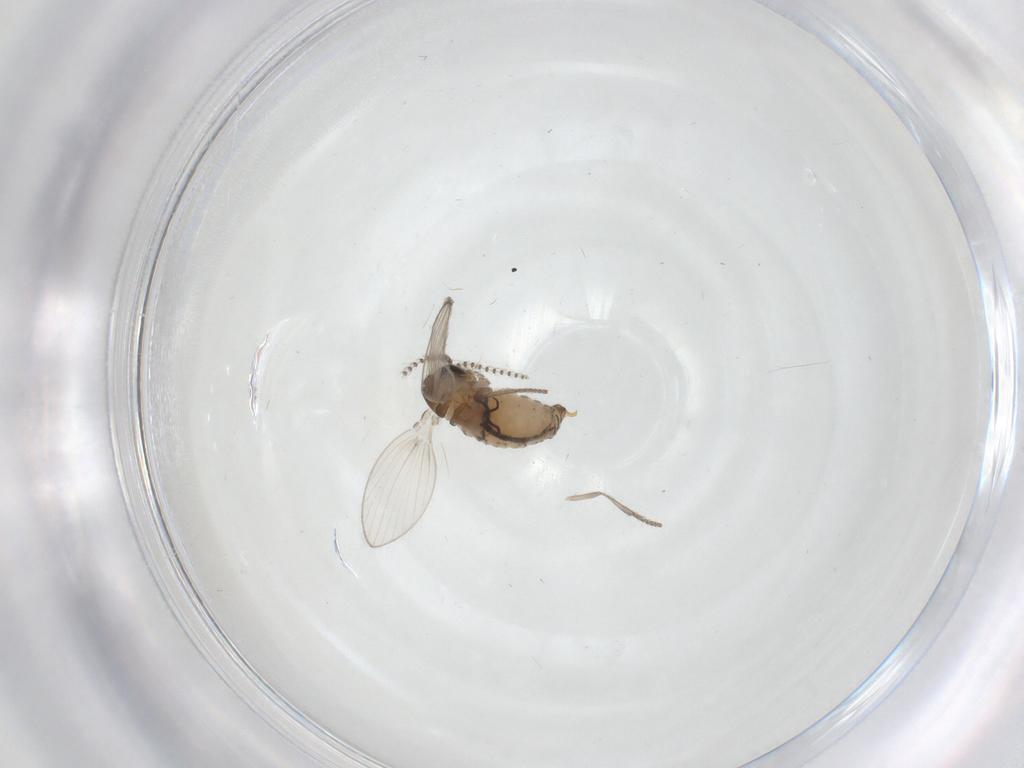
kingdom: Animalia
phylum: Arthropoda
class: Insecta
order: Diptera
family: Psychodidae
